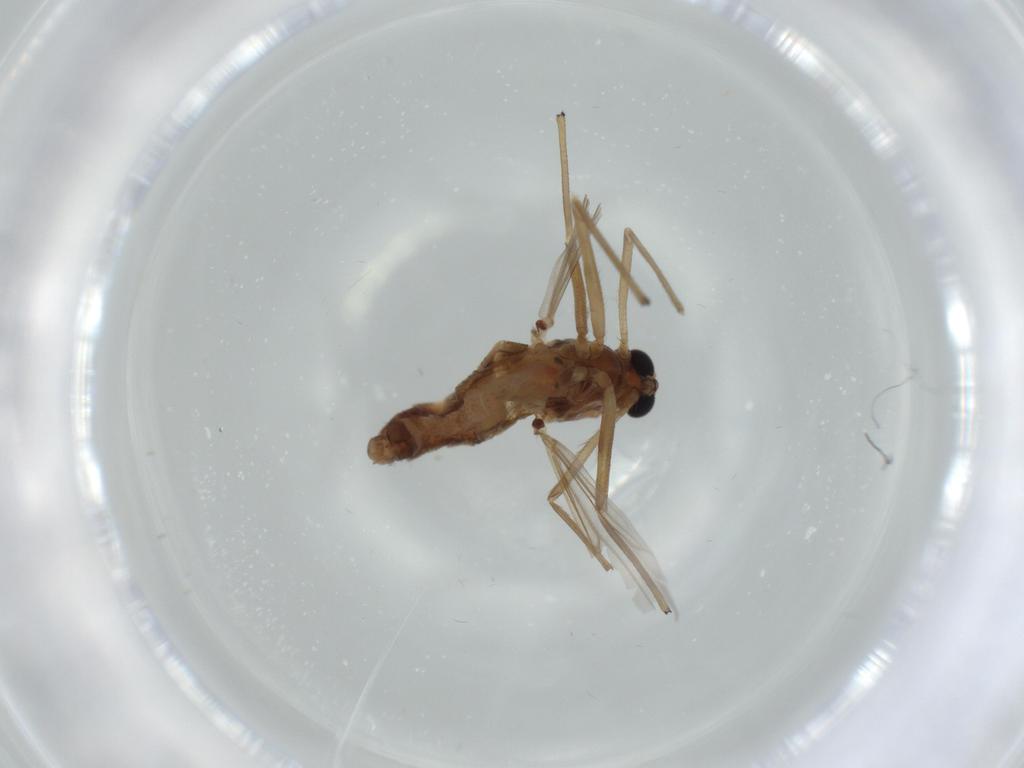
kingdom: Animalia
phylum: Arthropoda
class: Insecta
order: Diptera
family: Chironomidae
